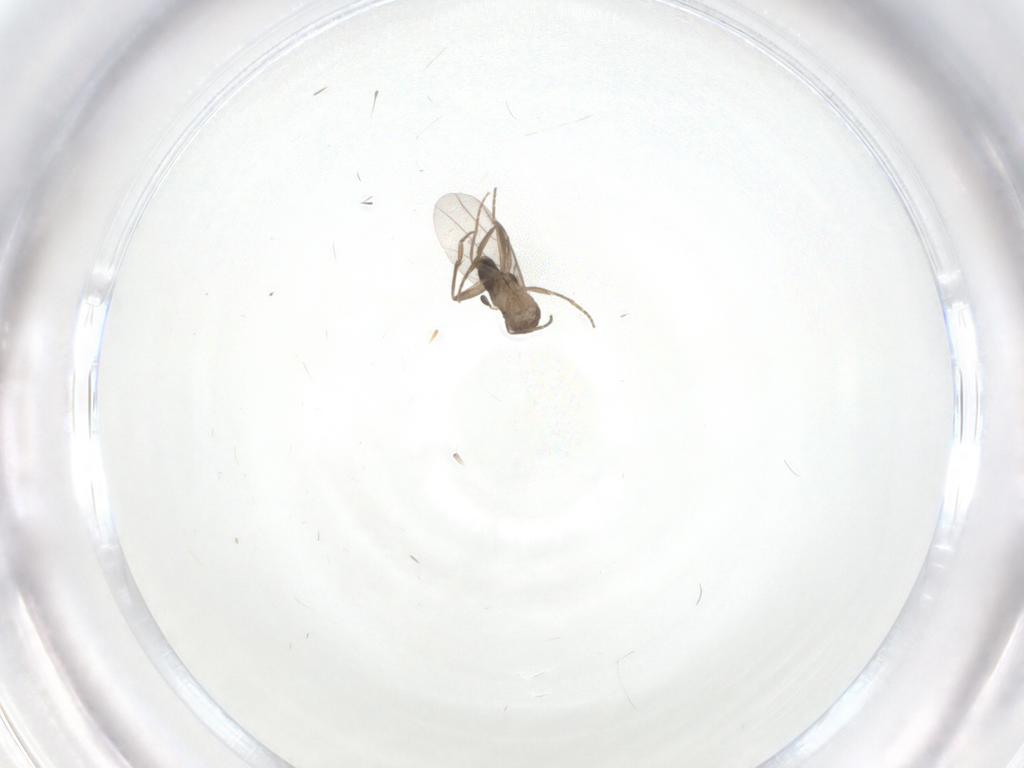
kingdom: Animalia
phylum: Arthropoda
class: Insecta
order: Diptera
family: Phoridae
